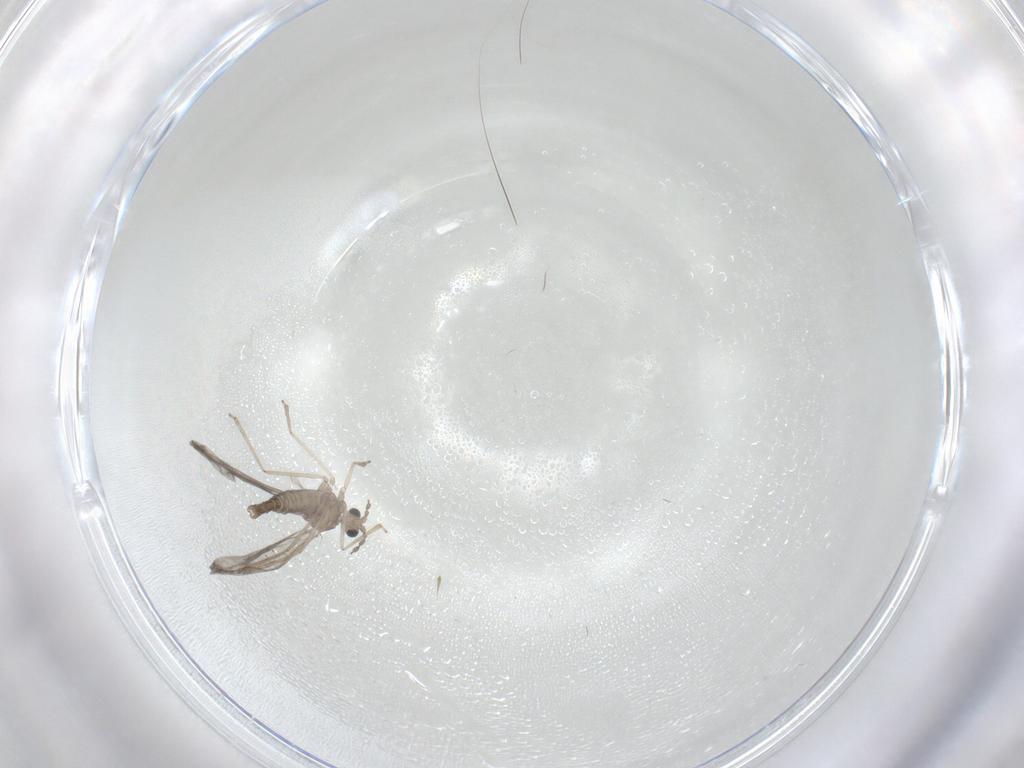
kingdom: Animalia
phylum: Arthropoda
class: Insecta
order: Diptera
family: Cecidomyiidae
